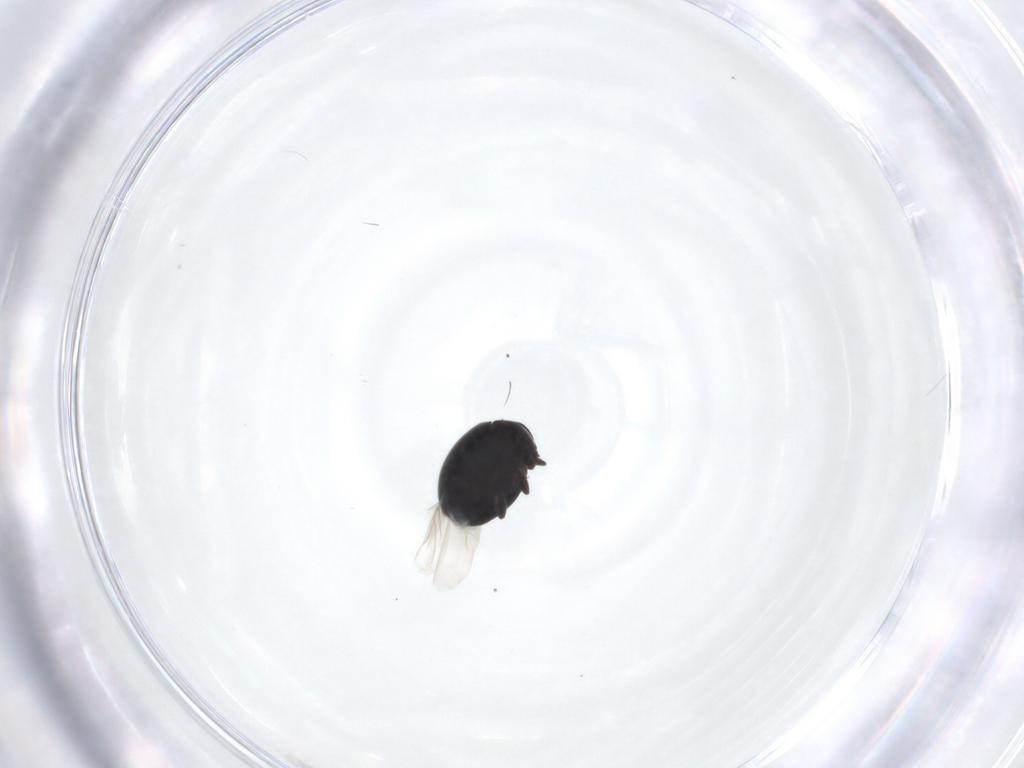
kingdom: Animalia
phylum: Arthropoda
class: Insecta
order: Coleoptera
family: Coccinellidae
